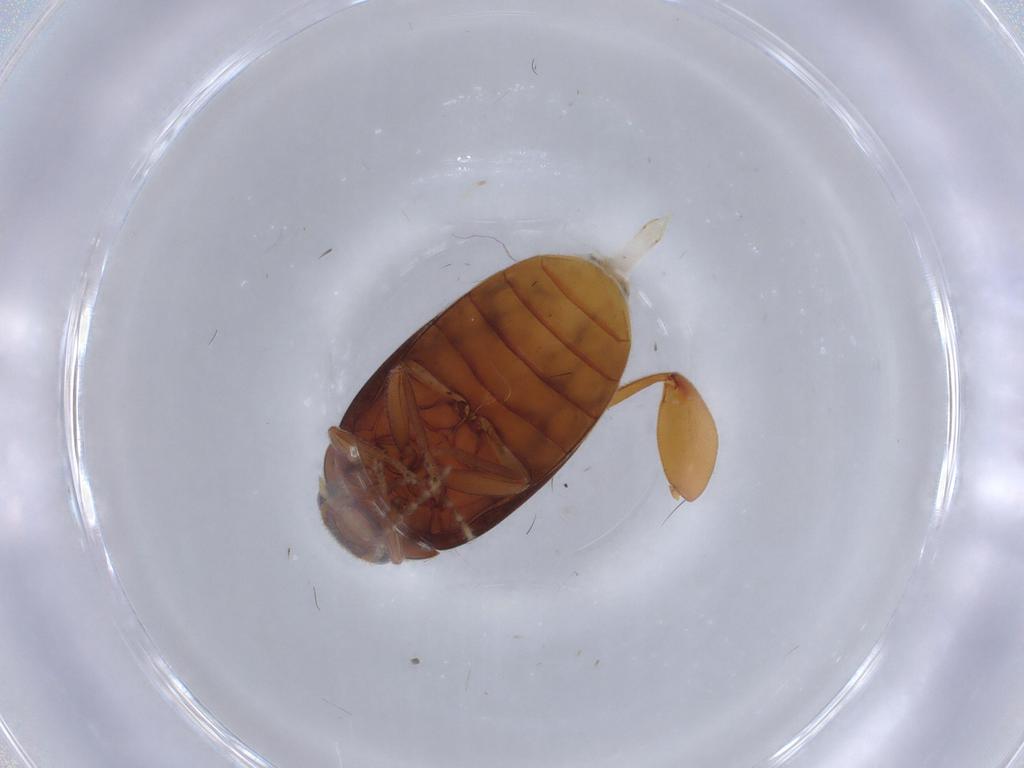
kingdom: Animalia
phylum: Arthropoda
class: Insecta
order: Coleoptera
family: Scirtidae
